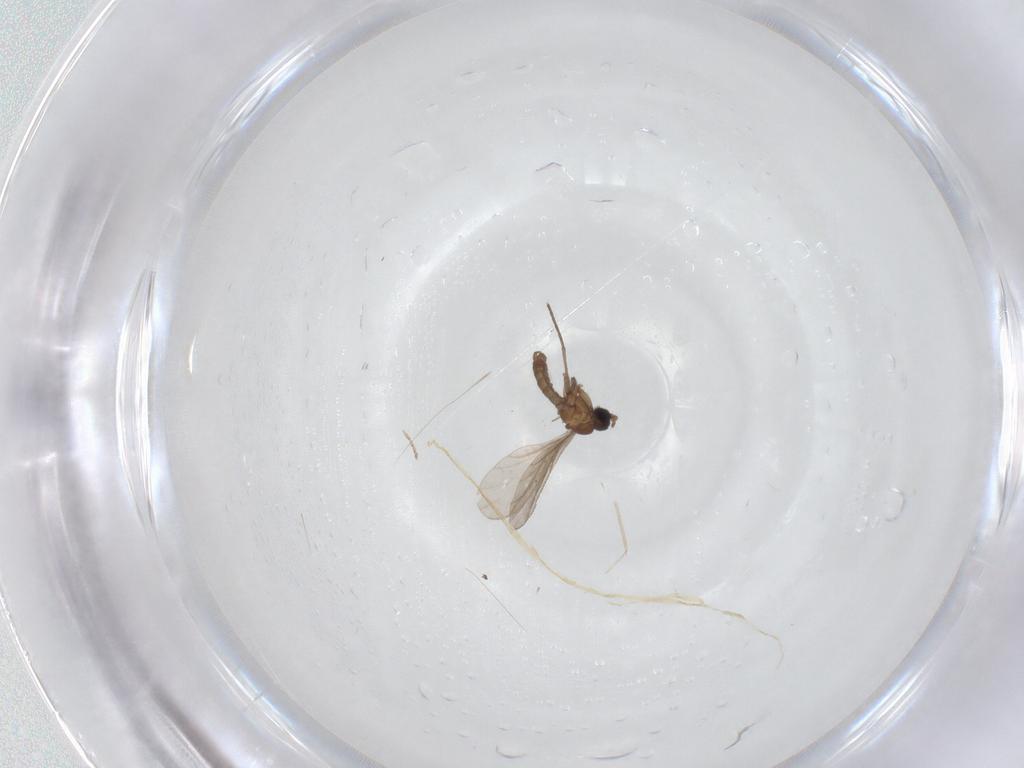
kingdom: Animalia
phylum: Arthropoda
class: Insecta
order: Diptera
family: Ceratopogonidae
